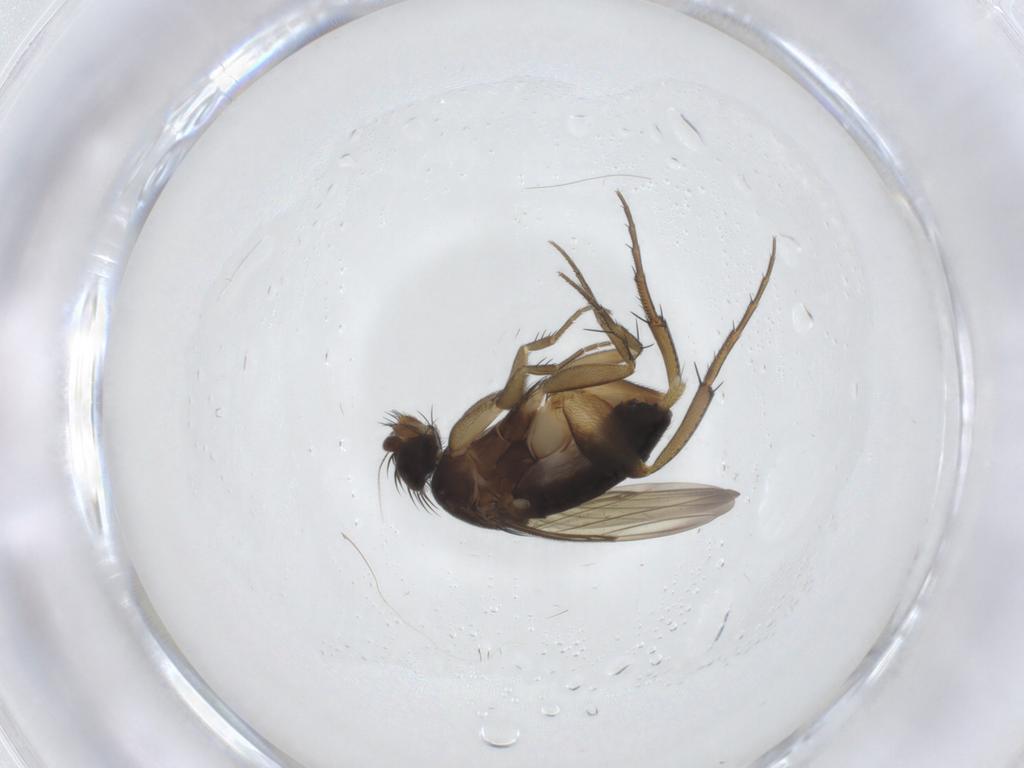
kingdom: Animalia
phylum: Arthropoda
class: Insecta
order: Diptera
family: Phoridae
